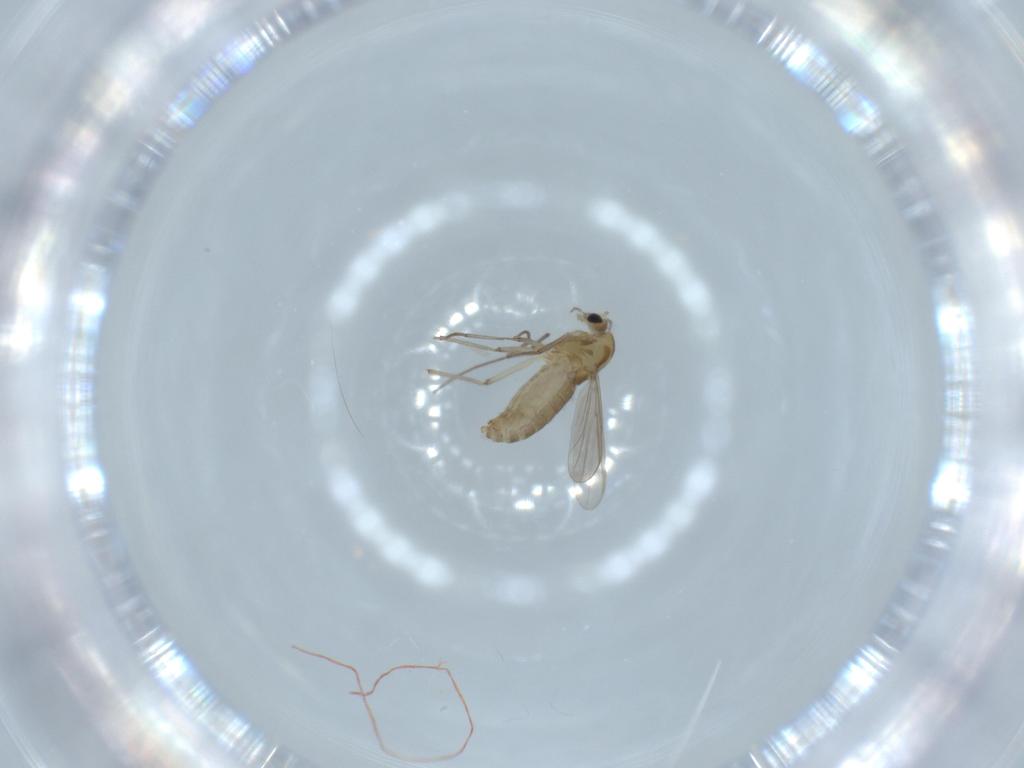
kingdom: Animalia
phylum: Arthropoda
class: Insecta
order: Diptera
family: Chironomidae
